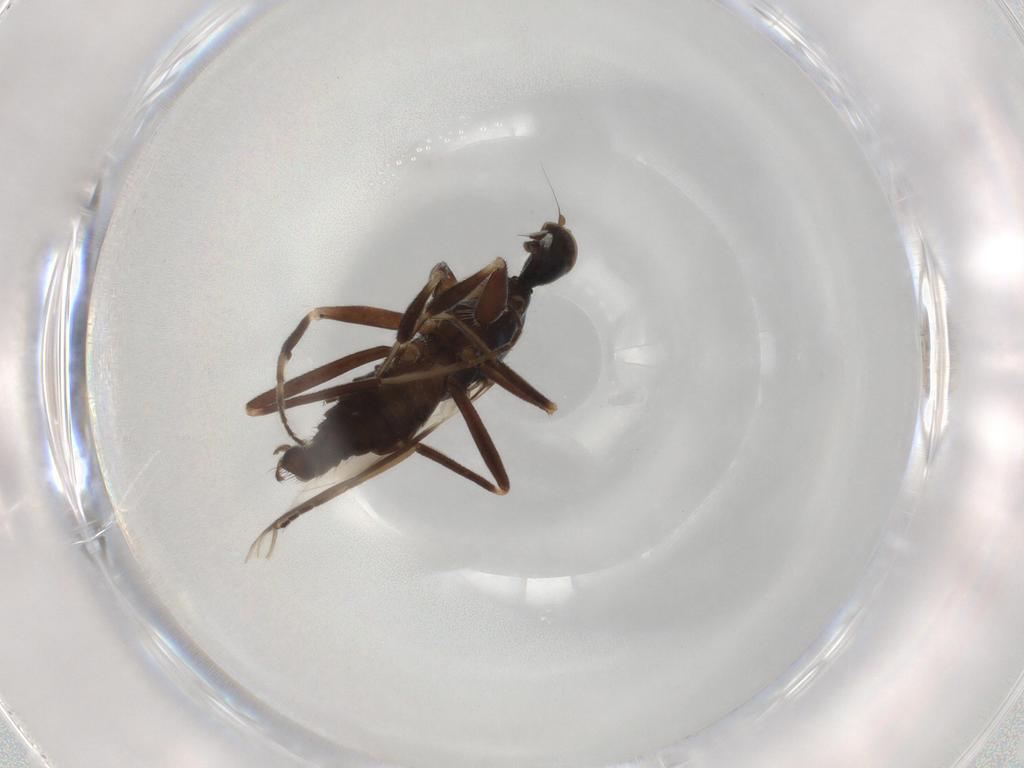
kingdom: Animalia
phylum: Arthropoda
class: Insecta
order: Diptera
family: Hybotidae
